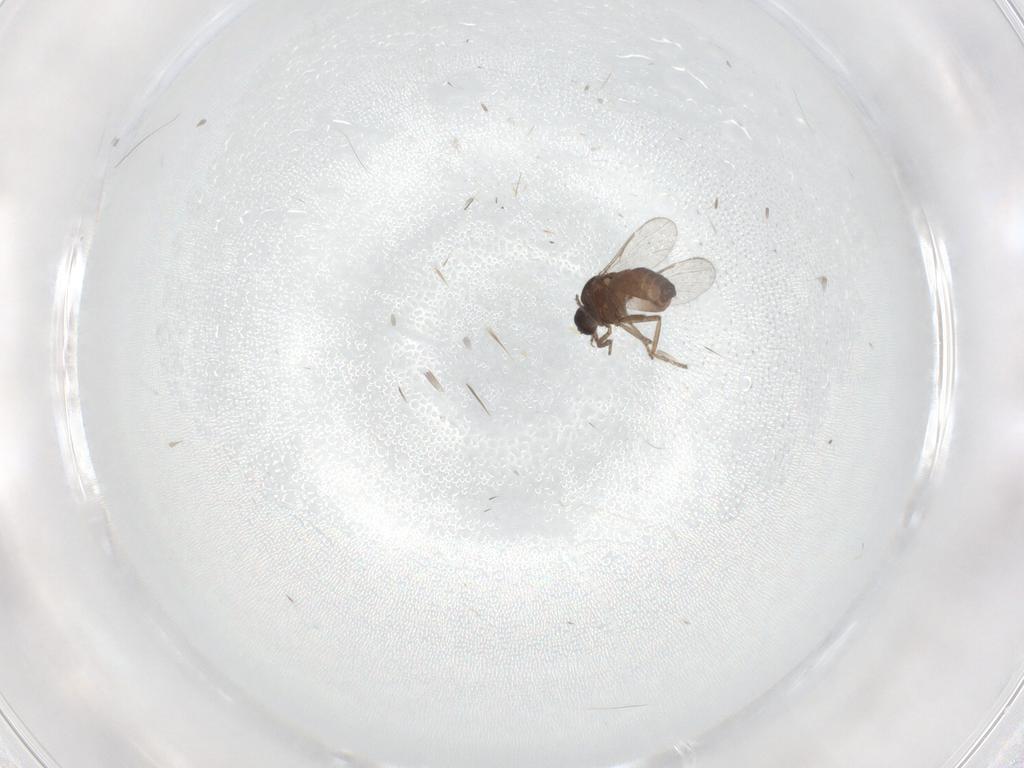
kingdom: Animalia
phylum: Arthropoda
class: Insecta
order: Diptera
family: Ceratopogonidae
